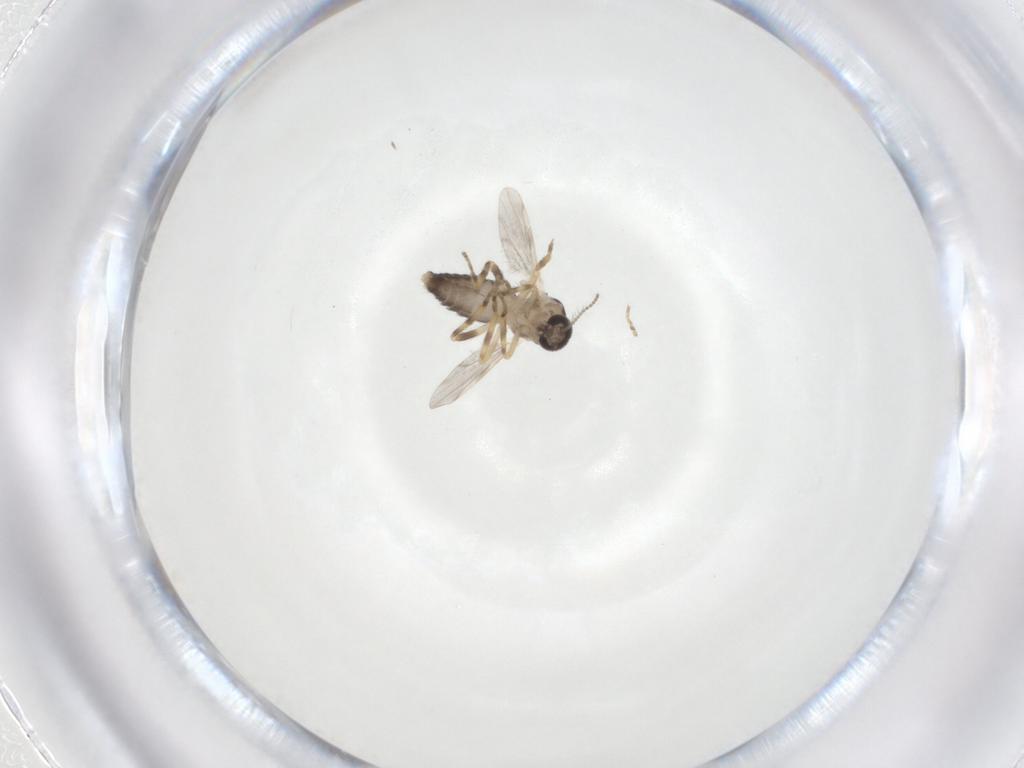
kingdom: Animalia
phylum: Arthropoda
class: Insecta
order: Diptera
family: Ceratopogonidae
